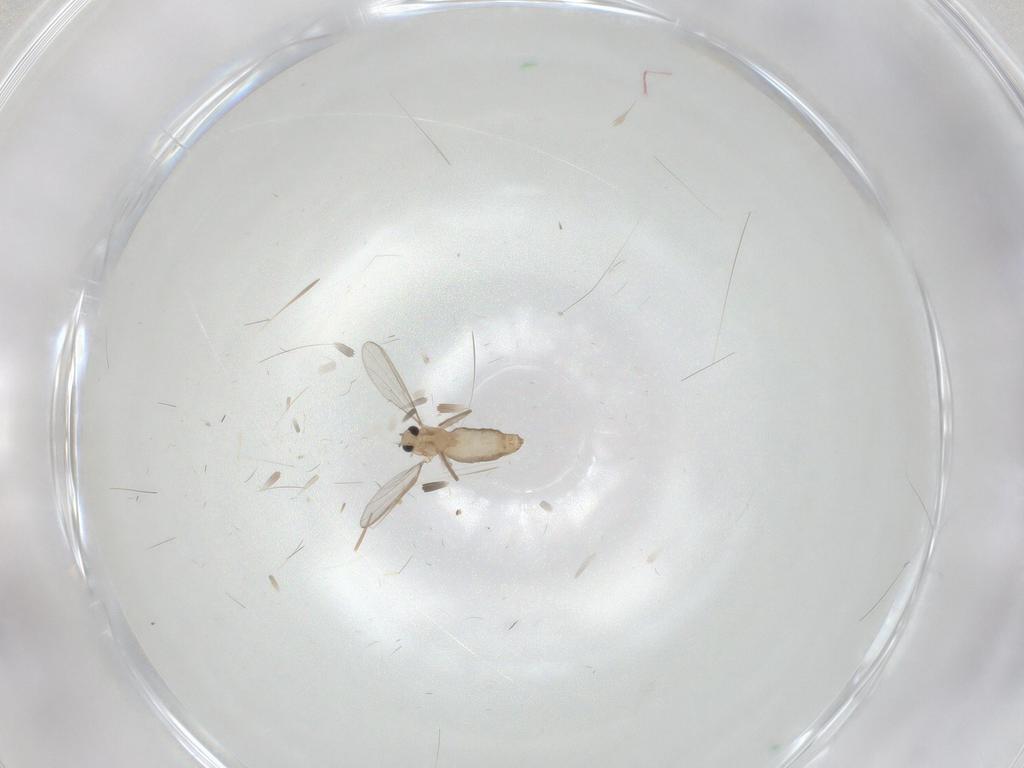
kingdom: Animalia
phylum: Arthropoda
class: Insecta
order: Diptera
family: Chironomidae
